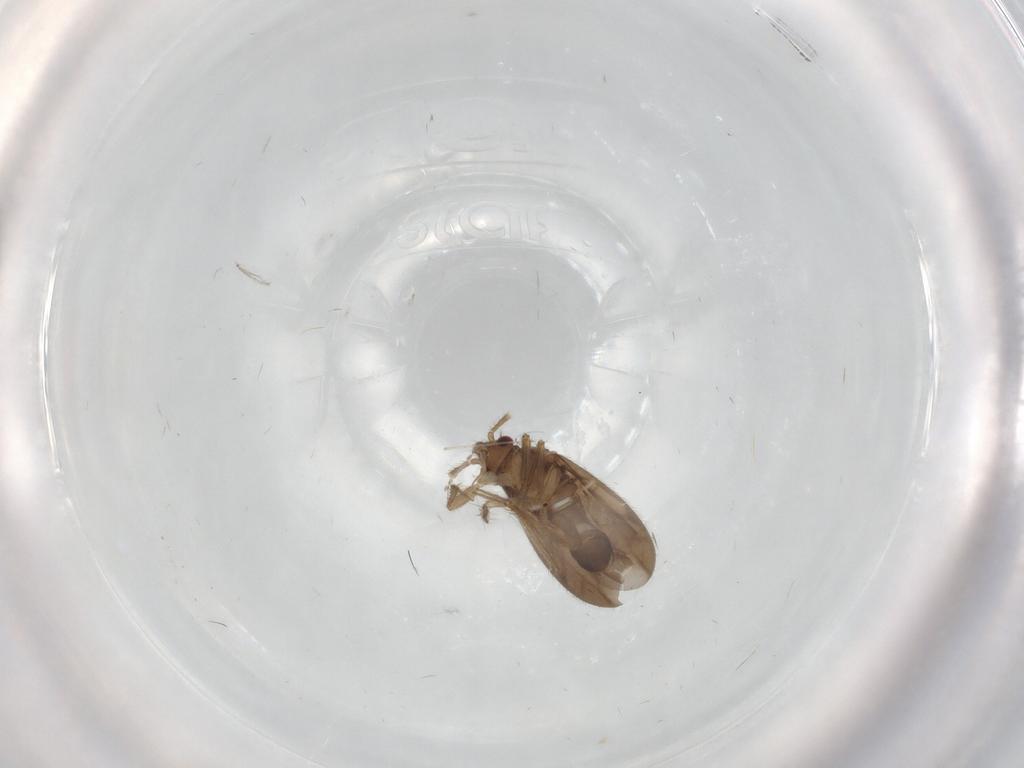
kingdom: Animalia
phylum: Arthropoda
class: Insecta
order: Hemiptera
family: Ceratocombidae
